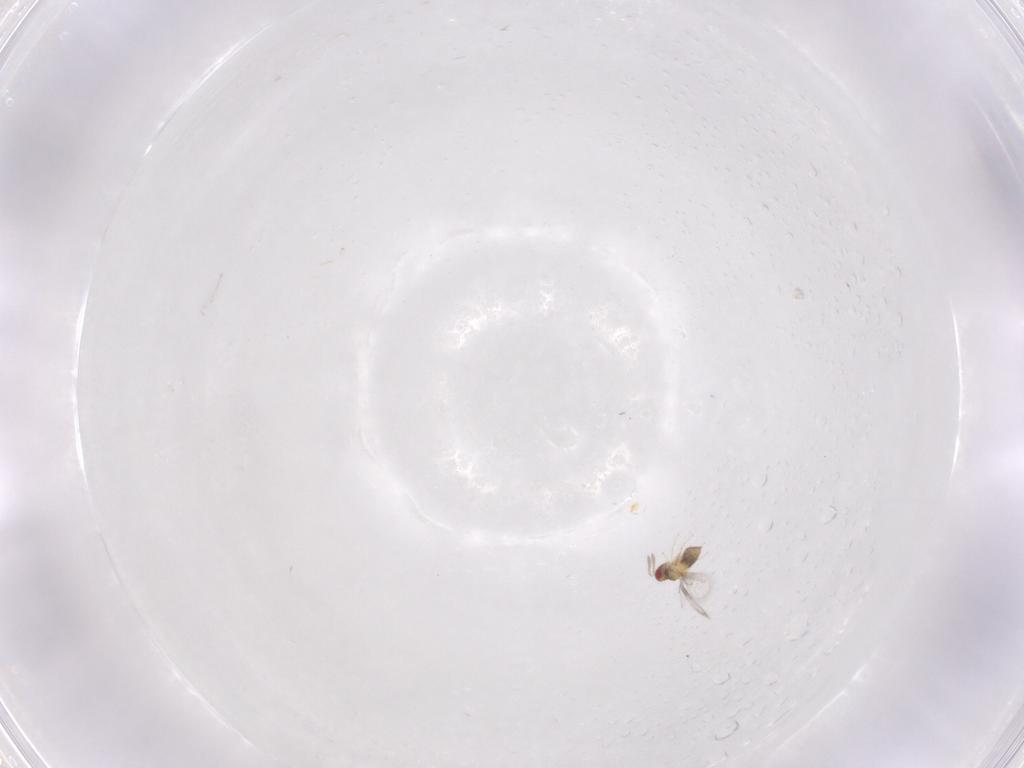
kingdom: Animalia
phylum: Arthropoda
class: Insecta
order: Hymenoptera
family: Trichogrammatidae
